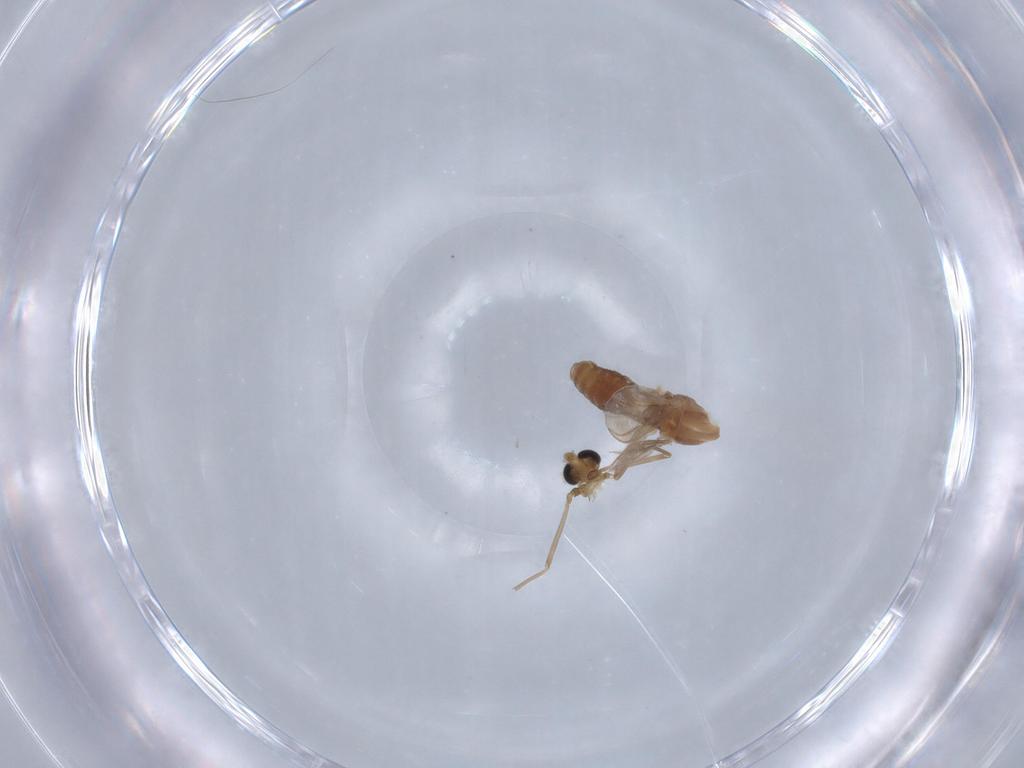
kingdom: Animalia
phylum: Arthropoda
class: Insecta
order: Diptera
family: Chironomidae
